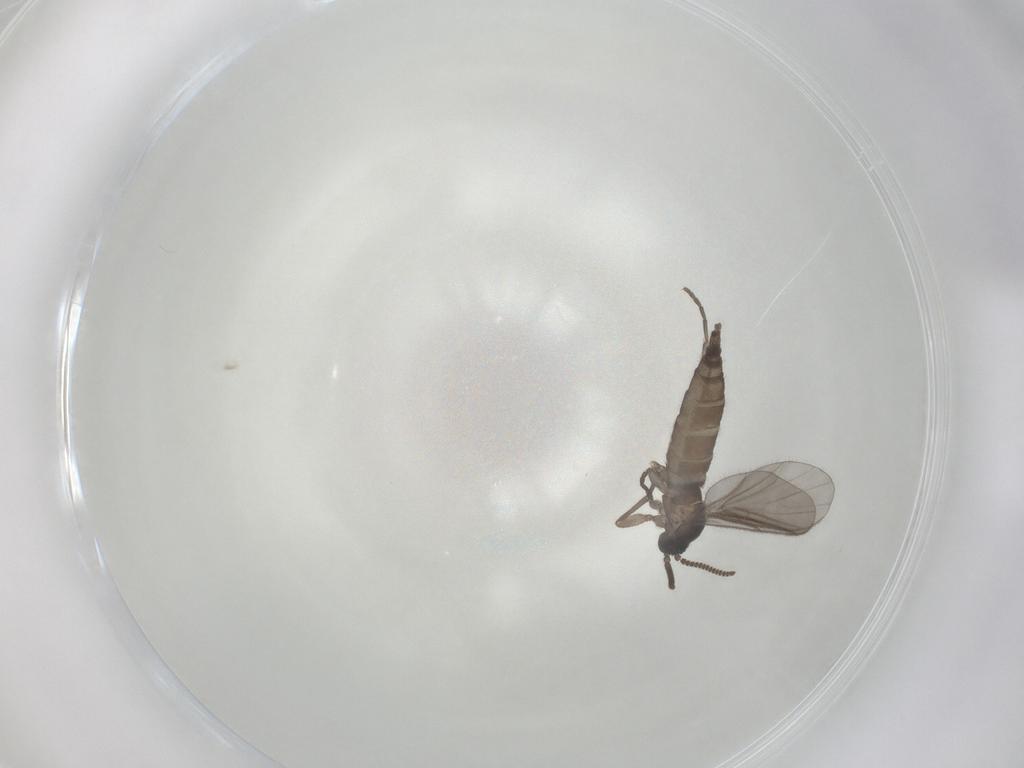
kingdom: Animalia
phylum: Arthropoda
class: Insecta
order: Diptera
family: Sciaridae
